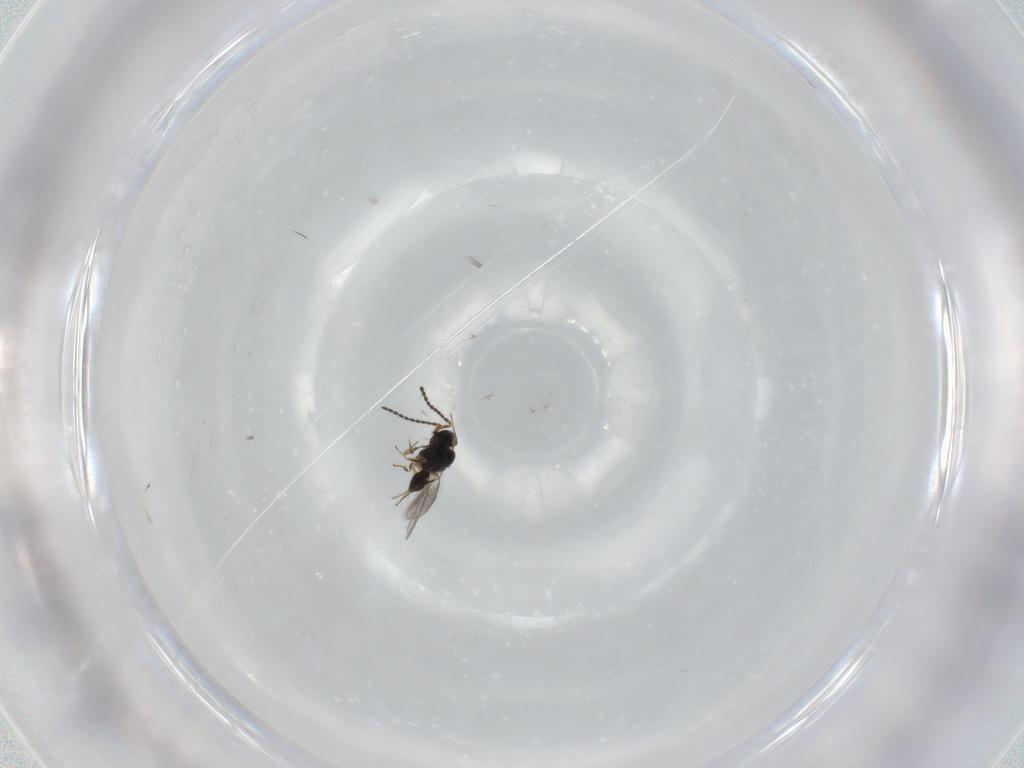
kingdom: Animalia
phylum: Arthropoda
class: Insecta
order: Hymenoptera
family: Scelionidae
